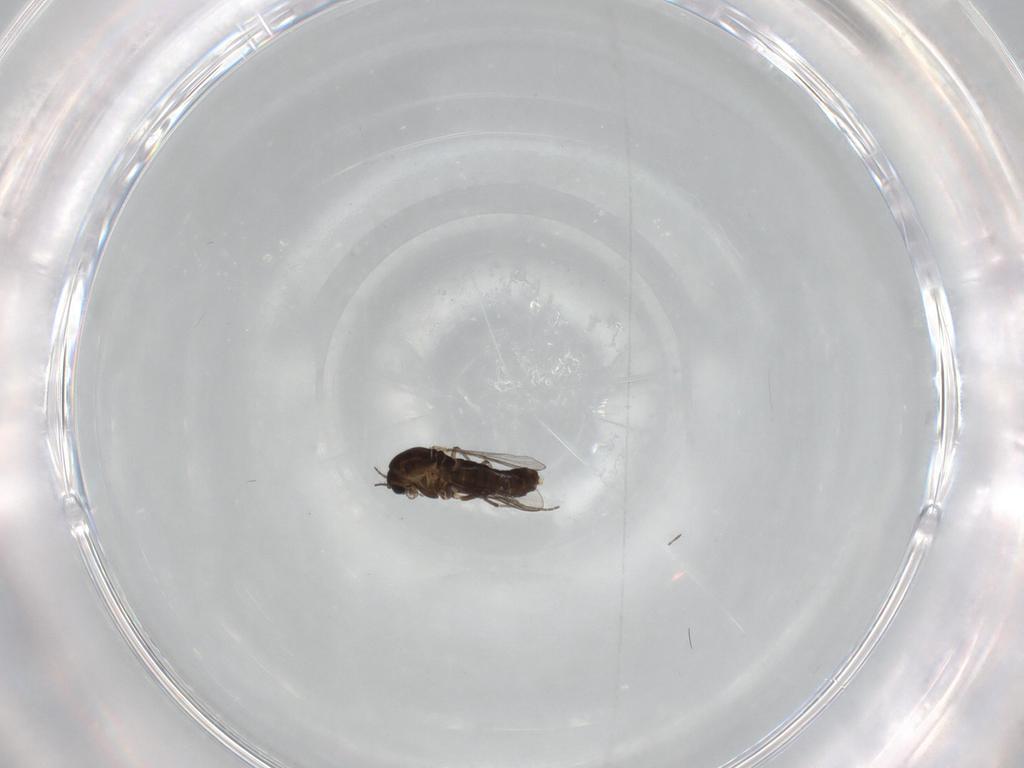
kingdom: Animalia
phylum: Arthropoda
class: Insecta
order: Diptera
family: Chironomidae
